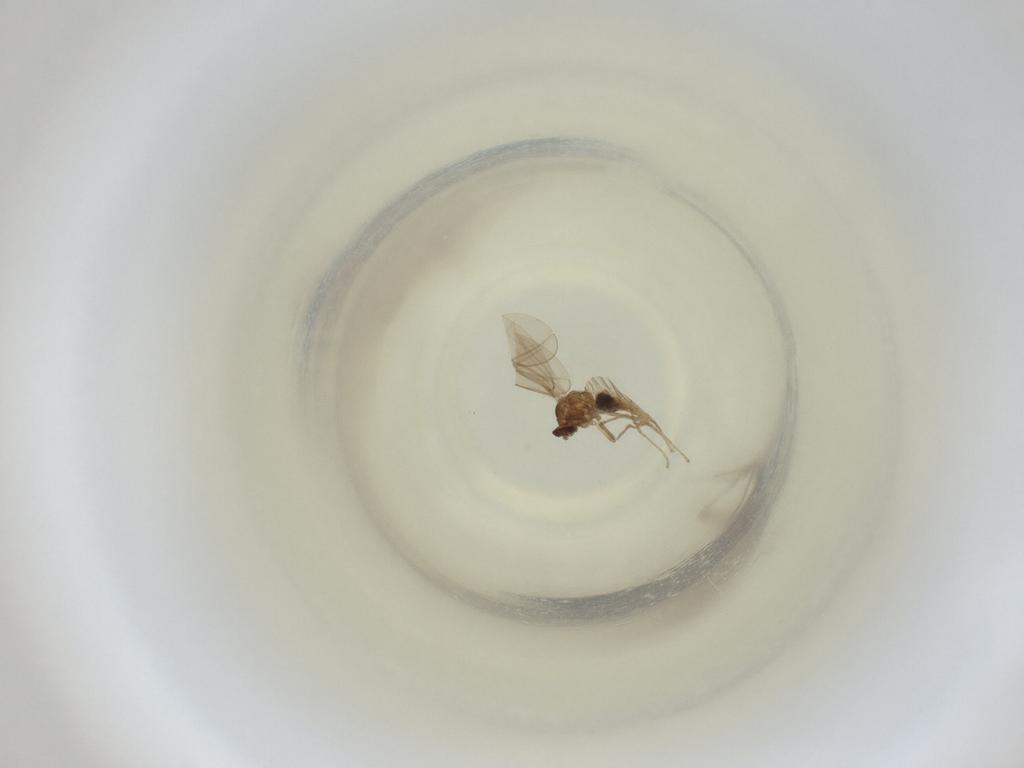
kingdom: Animalia
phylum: Arthropoda
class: Insecta
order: Diptera
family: Cecidomyiidae
